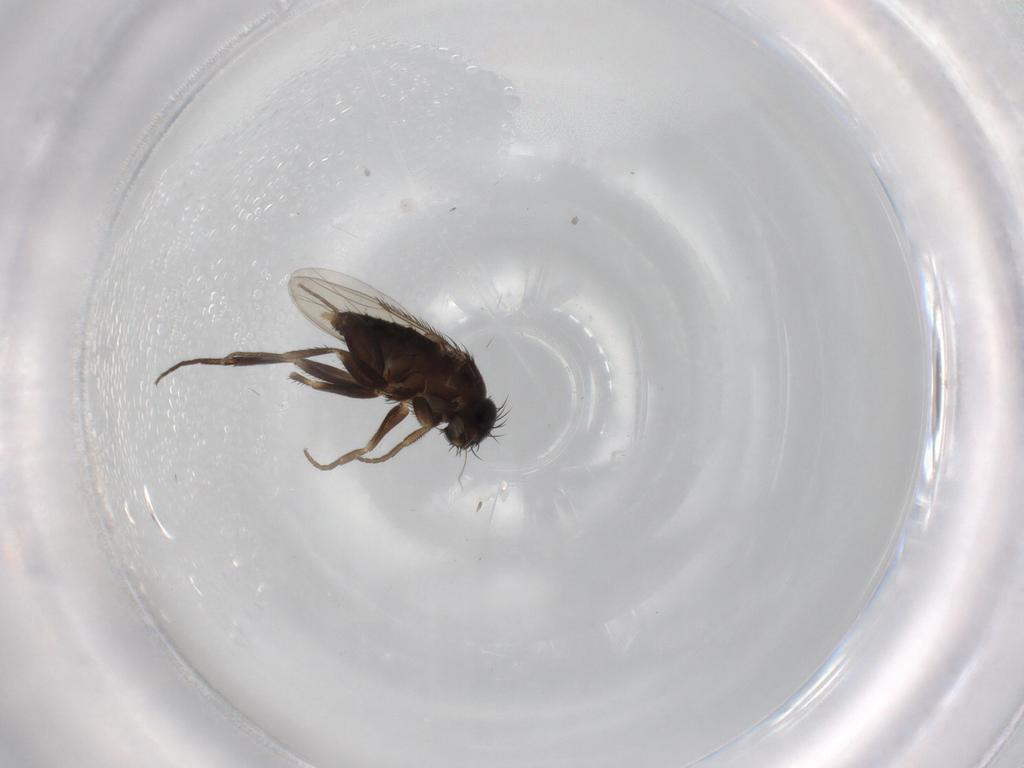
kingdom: Animalia
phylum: Arthropoda
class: Insecta
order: Diptera
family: Phoridae
